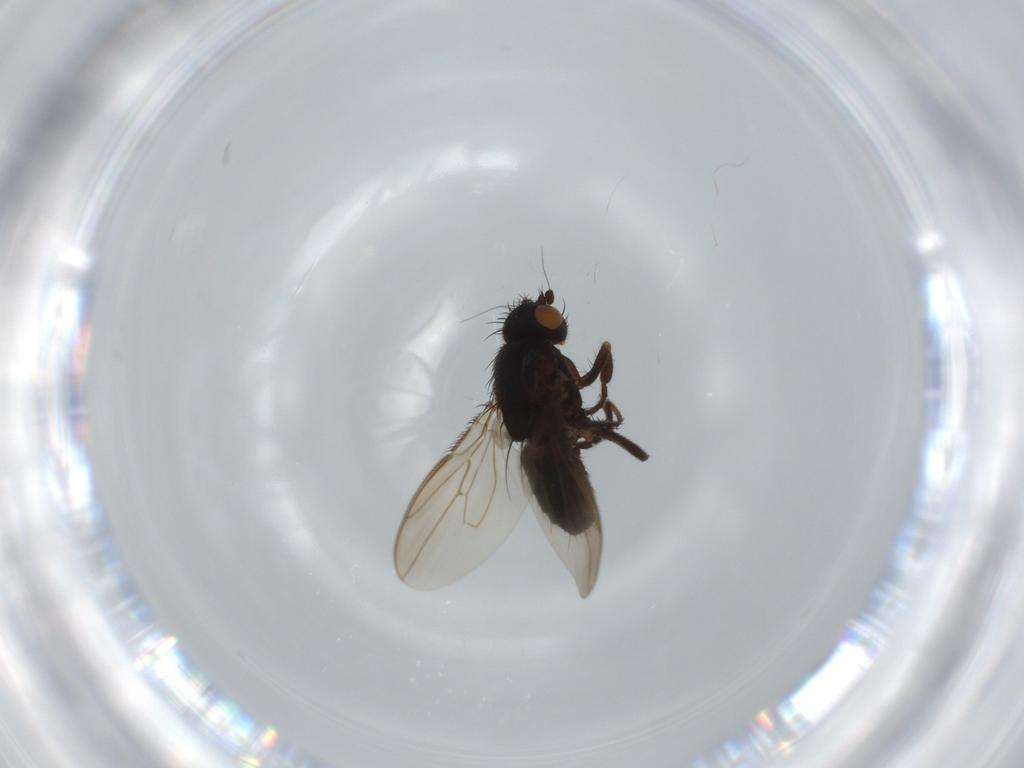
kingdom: Animalia
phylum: Arthropoda
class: Insecta
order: Diptera
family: Sphaeroceridae
